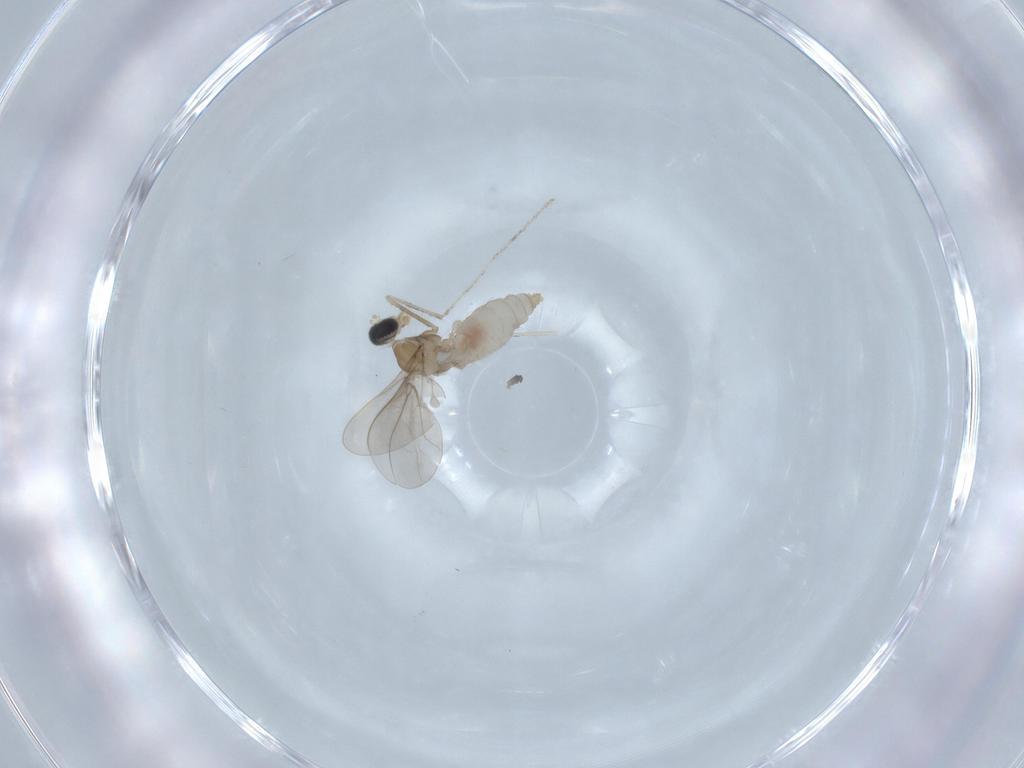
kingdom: Animalia
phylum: Arthropoda
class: Insecta
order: Diptera
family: Cecidomyiidae
